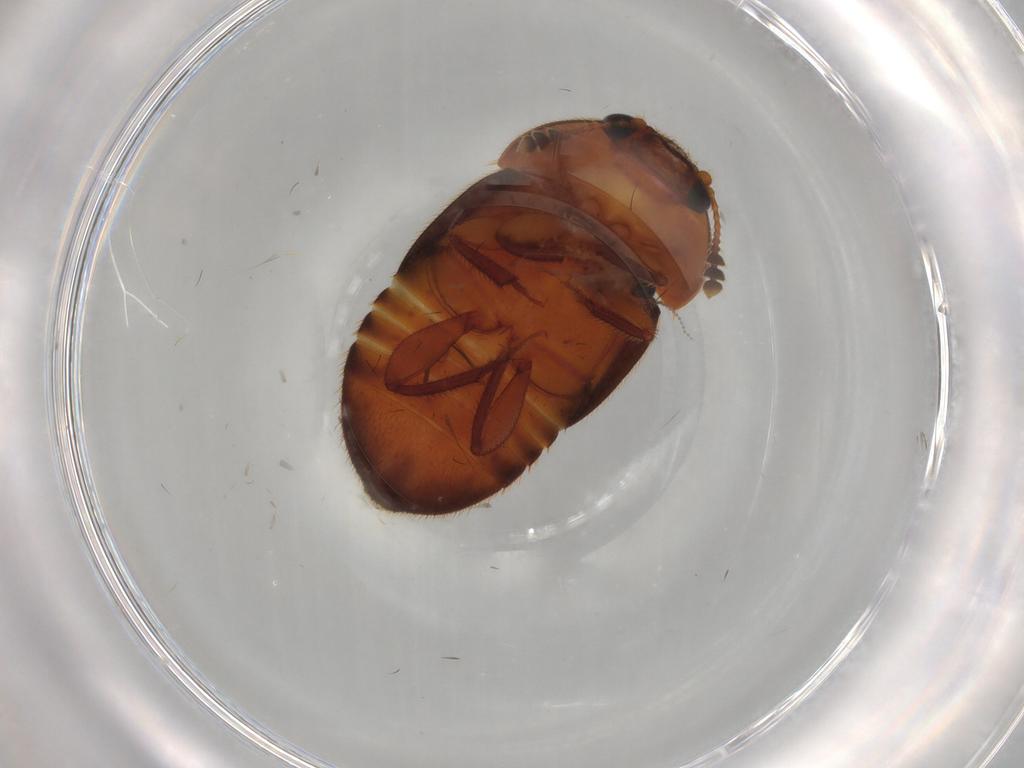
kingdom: Animalia
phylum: Arthropoda
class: Insecta
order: Coleoptera
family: Nitidulidae
